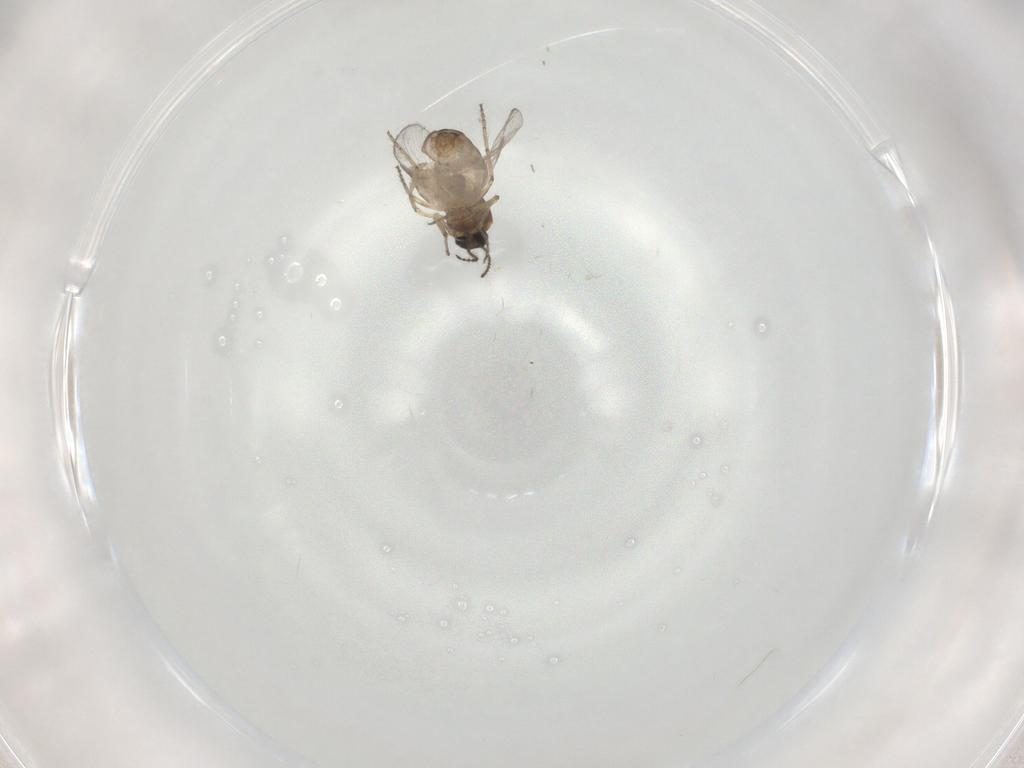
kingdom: Animalia
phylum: Arthropoda
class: Insecta
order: Diptera
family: Ceratopogonidae
